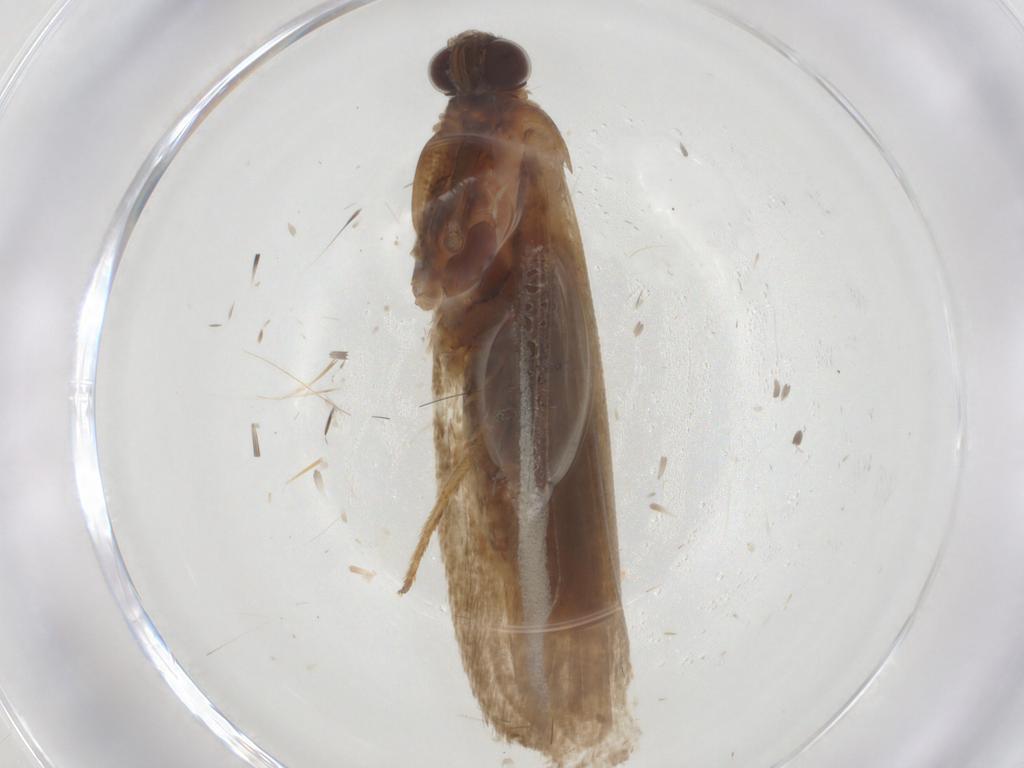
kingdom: Animalia
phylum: Arthropoda
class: Insecta
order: Lepidoptera
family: Pyralidae
